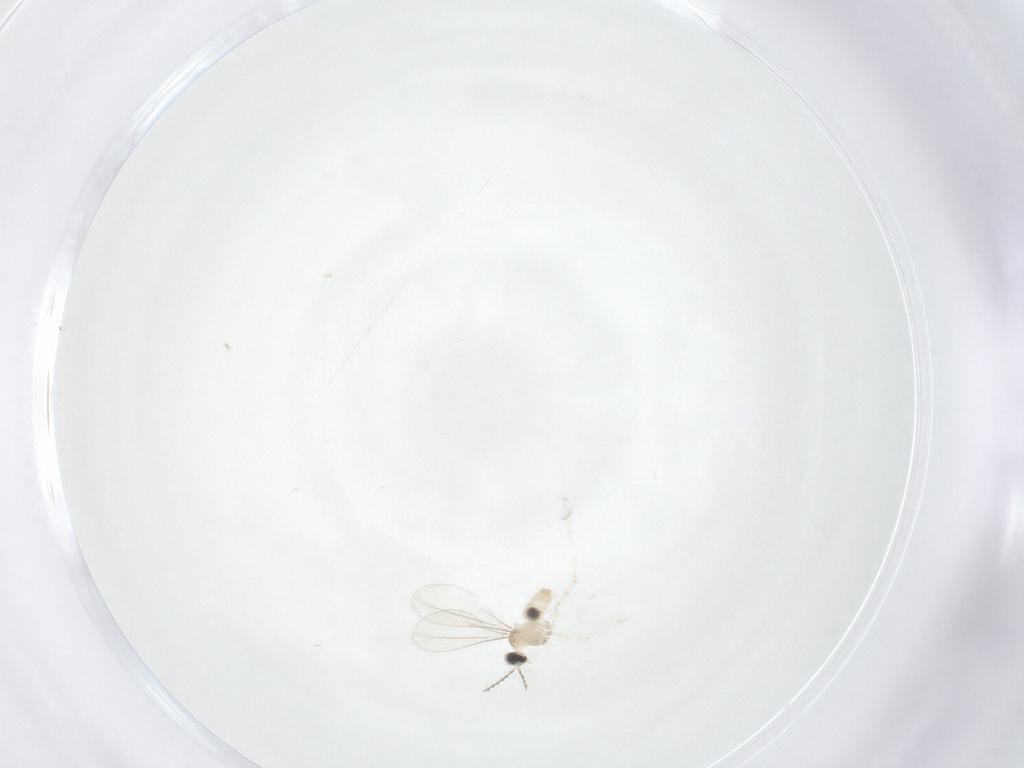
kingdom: Animalia
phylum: Arthropoda
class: Insecta
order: Diptera
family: Cecidomyiidae
